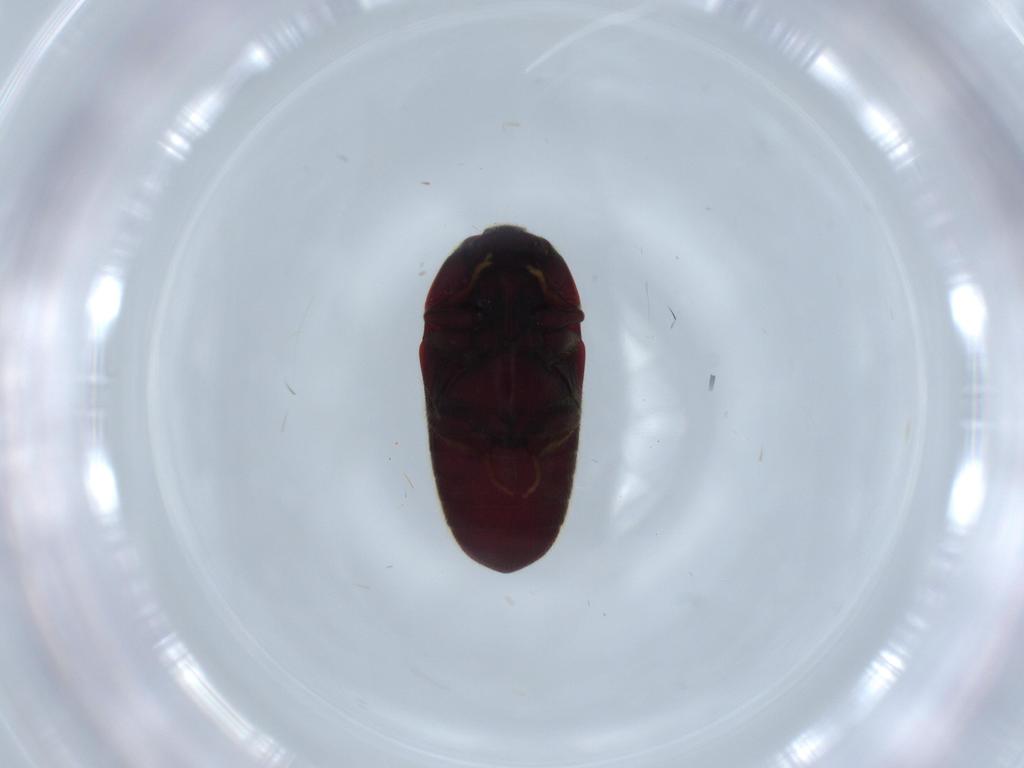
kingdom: Animalia
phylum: Arthropoda
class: Insecta
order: Coleoptera
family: Throscidae
